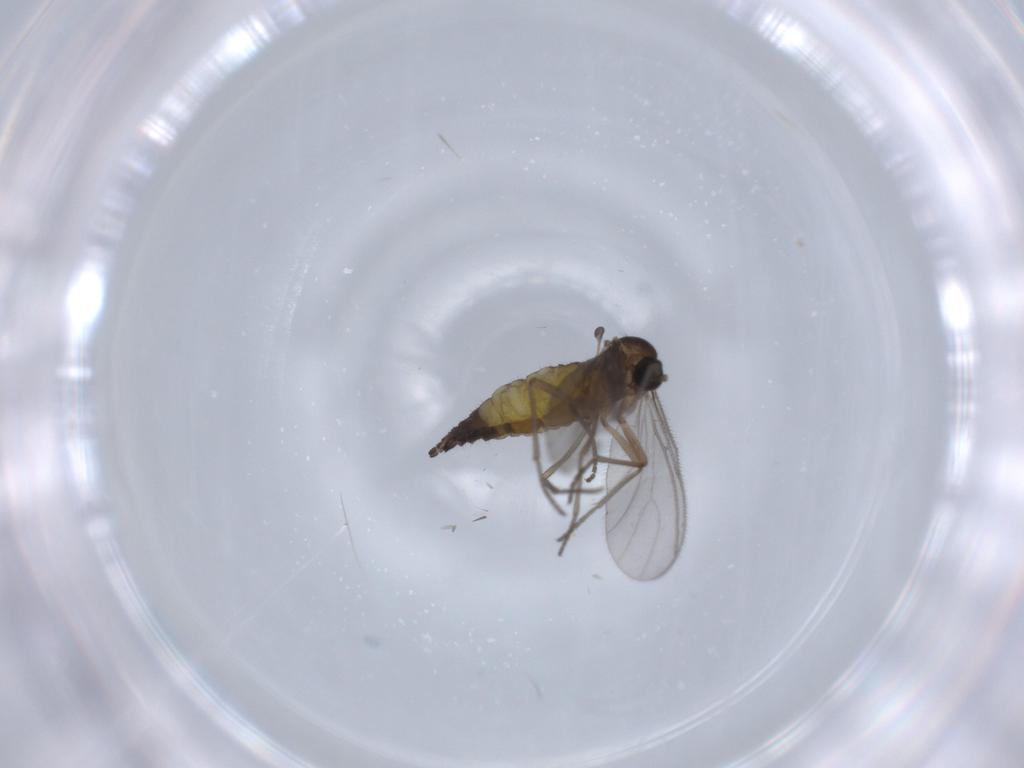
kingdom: Animalia
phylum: Arthropoda
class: Insecta
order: Diptera
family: Sciaridae
